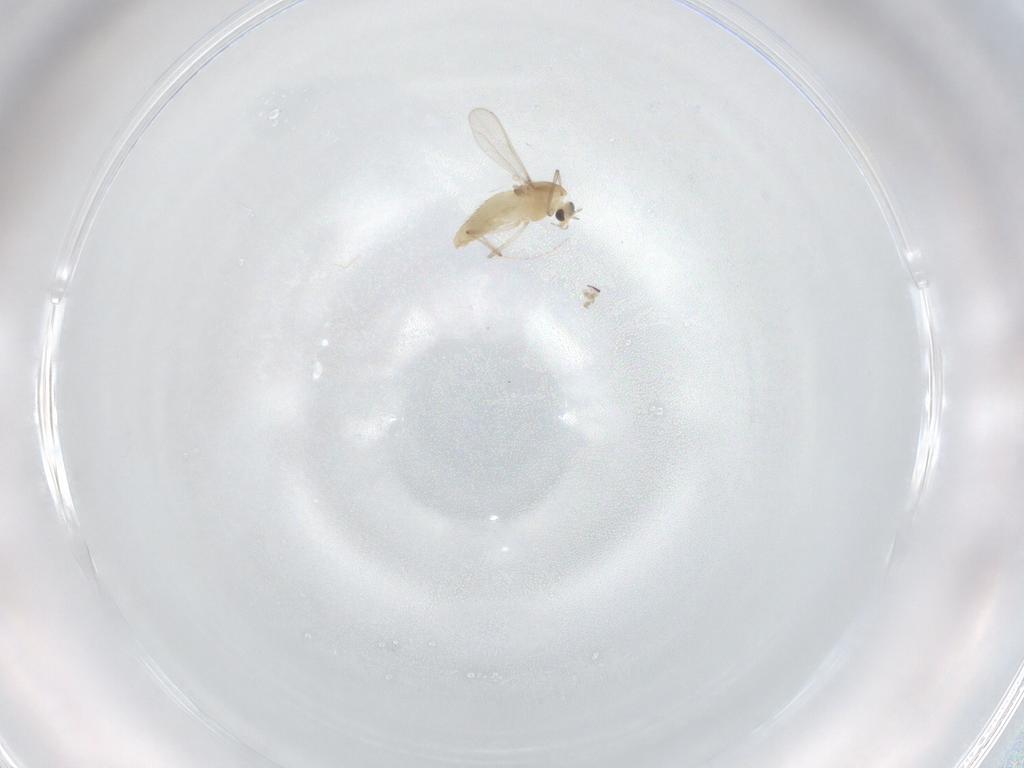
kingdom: Animalia
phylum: Arthropoda
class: Insecta
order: Diptera
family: Chironomidae
